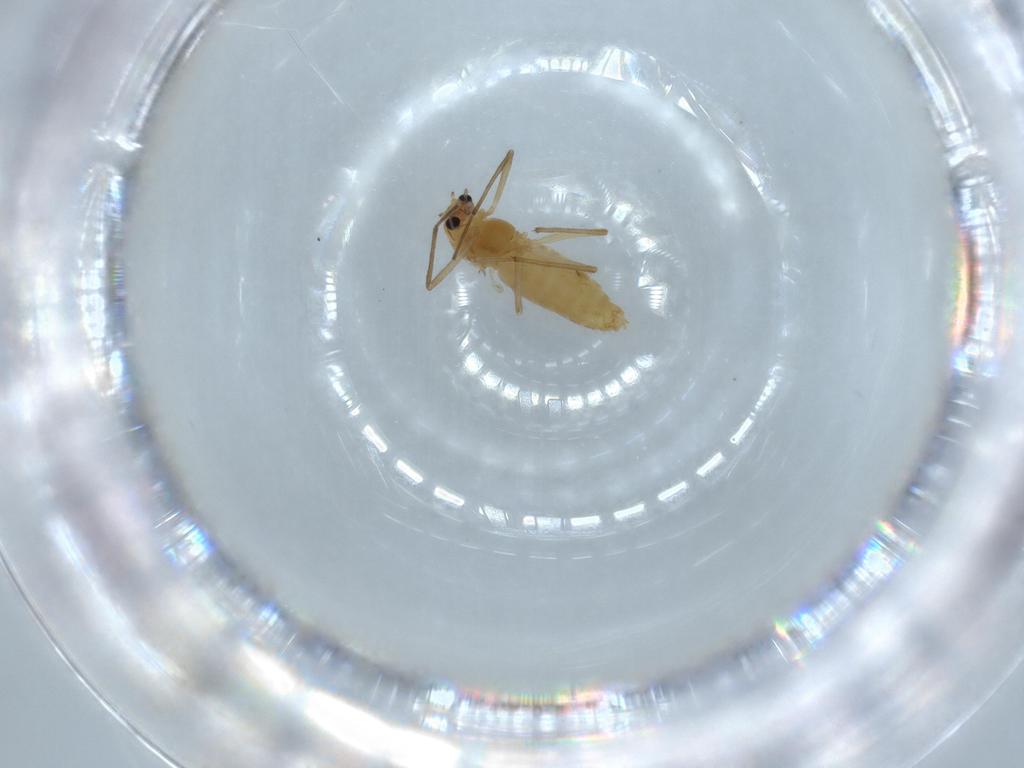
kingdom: Animalia
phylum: Arthropoda
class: Insecta
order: Diptera
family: Chironomidae
